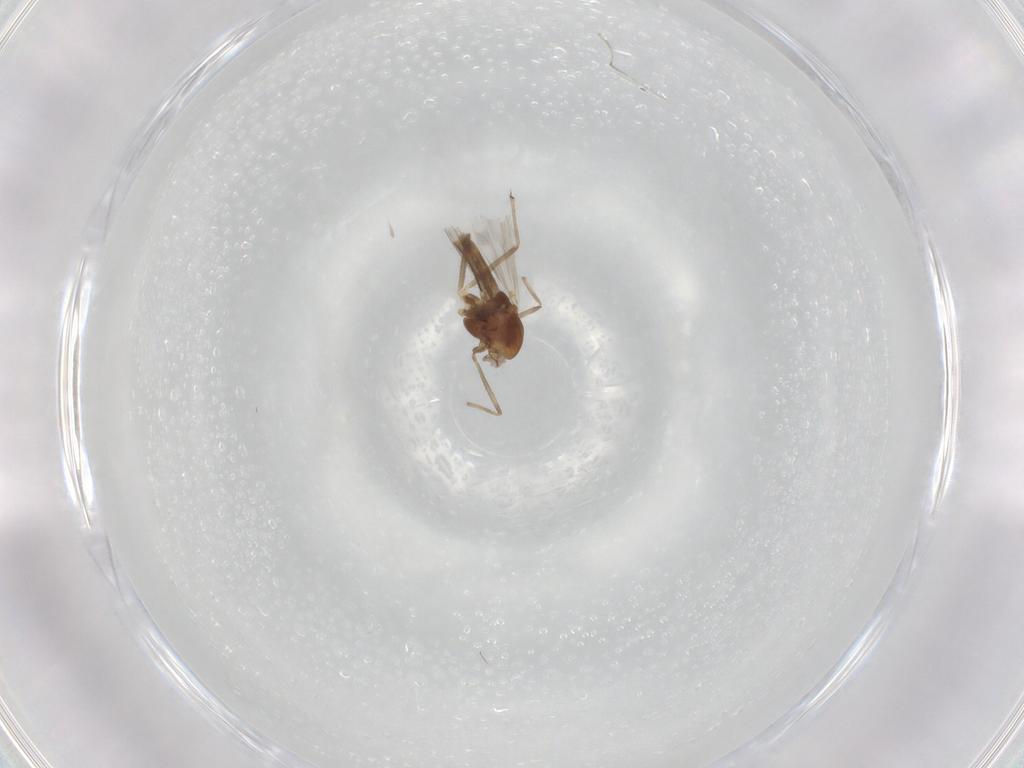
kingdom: Animalia
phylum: Arthropoda
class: Insecta
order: Diptera
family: Chironomidae
